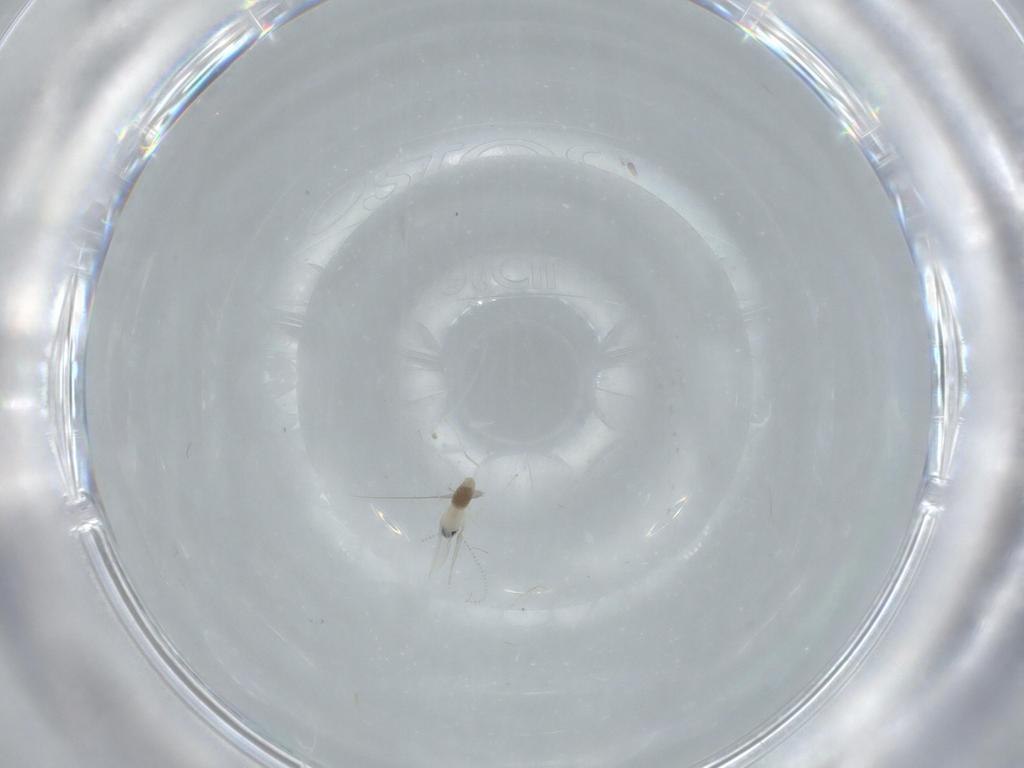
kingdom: Animalia
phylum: Arthropoda
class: Insecta
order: Diptera
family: Cecidomyiidae
